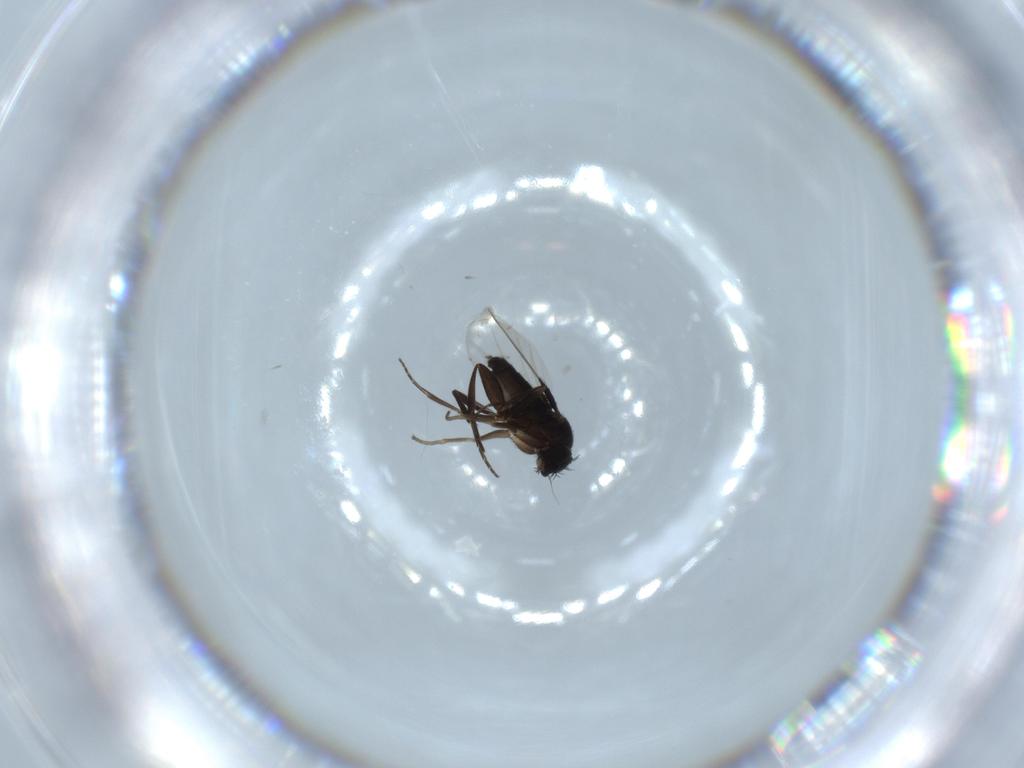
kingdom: Animalia
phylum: Arthropoda
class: Insecta
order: Diptera
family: Phoridae
